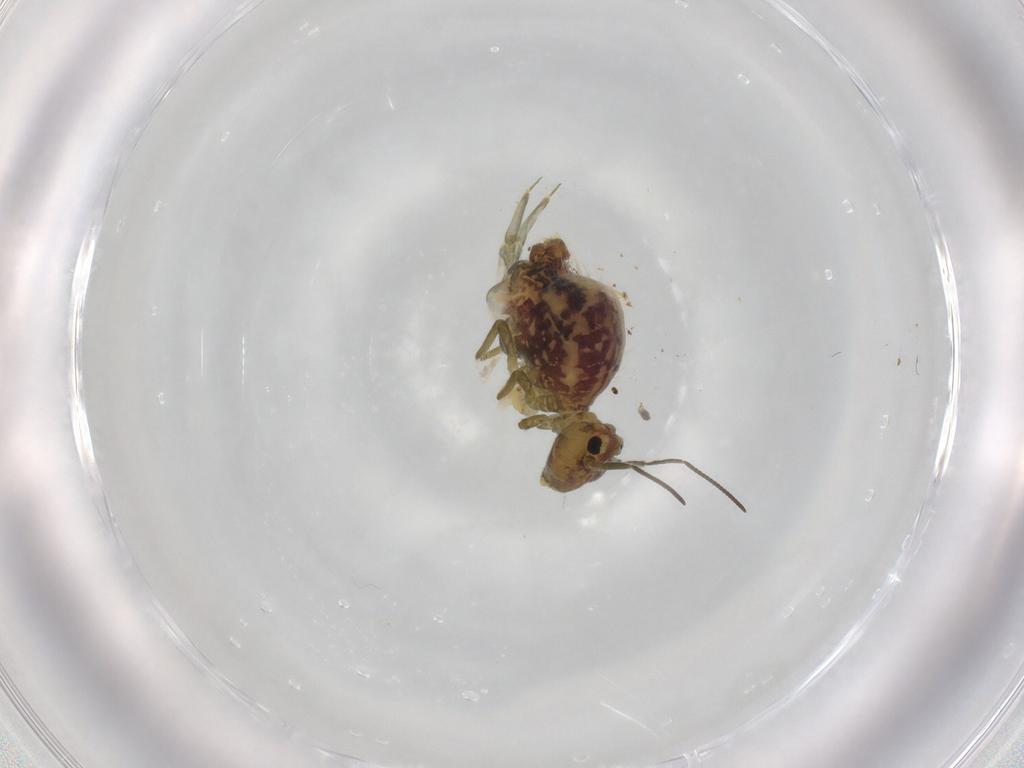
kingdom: Animalia
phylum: Arthropoda
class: Collembola
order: Symphypleona
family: Sminthuridae
